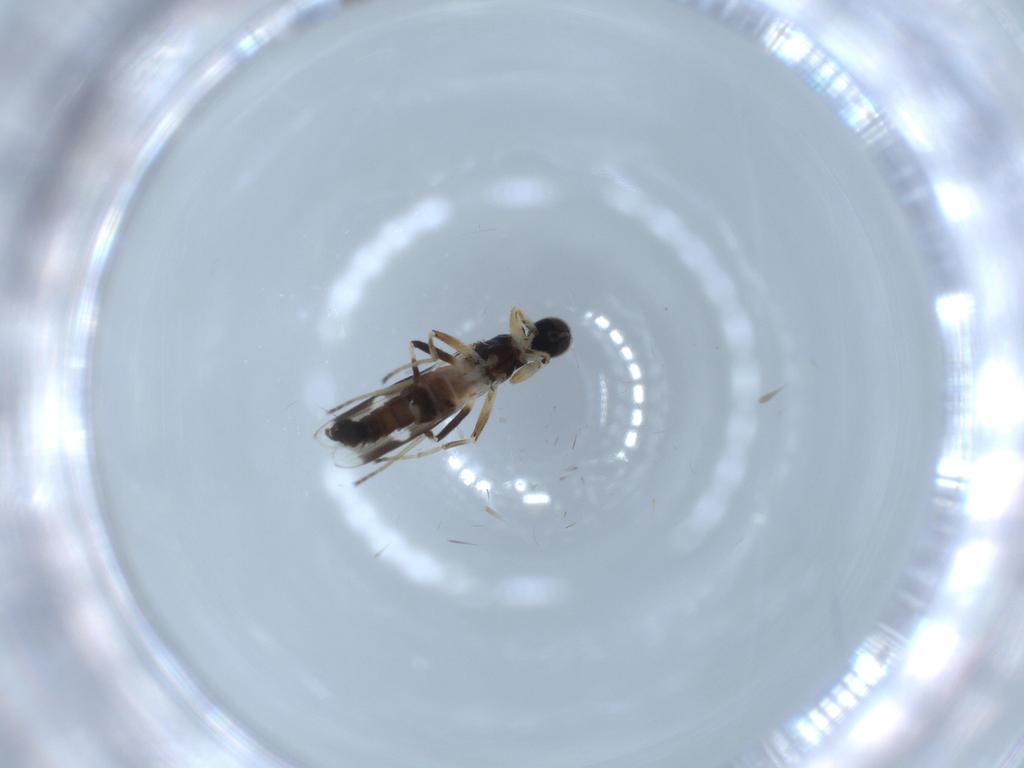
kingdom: Animalia
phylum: Arthropoda
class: Insecta
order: Diptera
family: Hybotidae
